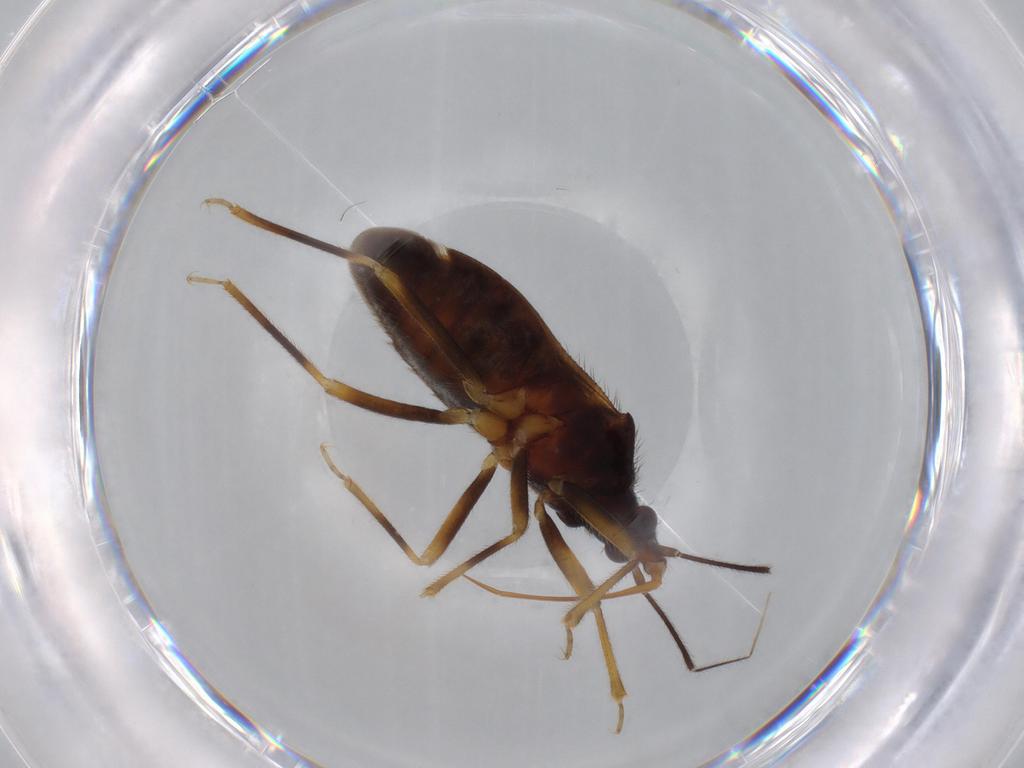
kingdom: Animalia
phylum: Arthropoda
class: Insecta
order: Hemiptera
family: Anthocoridae
